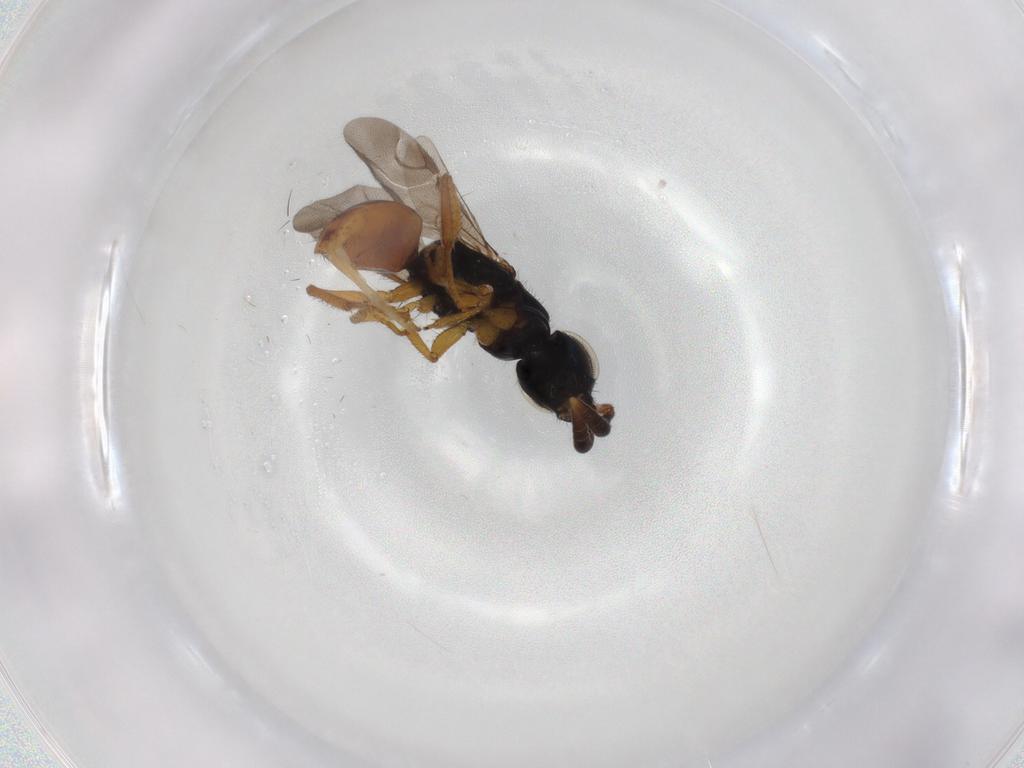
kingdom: Animalia
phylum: Arthropoda
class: Insecta
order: Hymenoptera
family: Chrysididae
